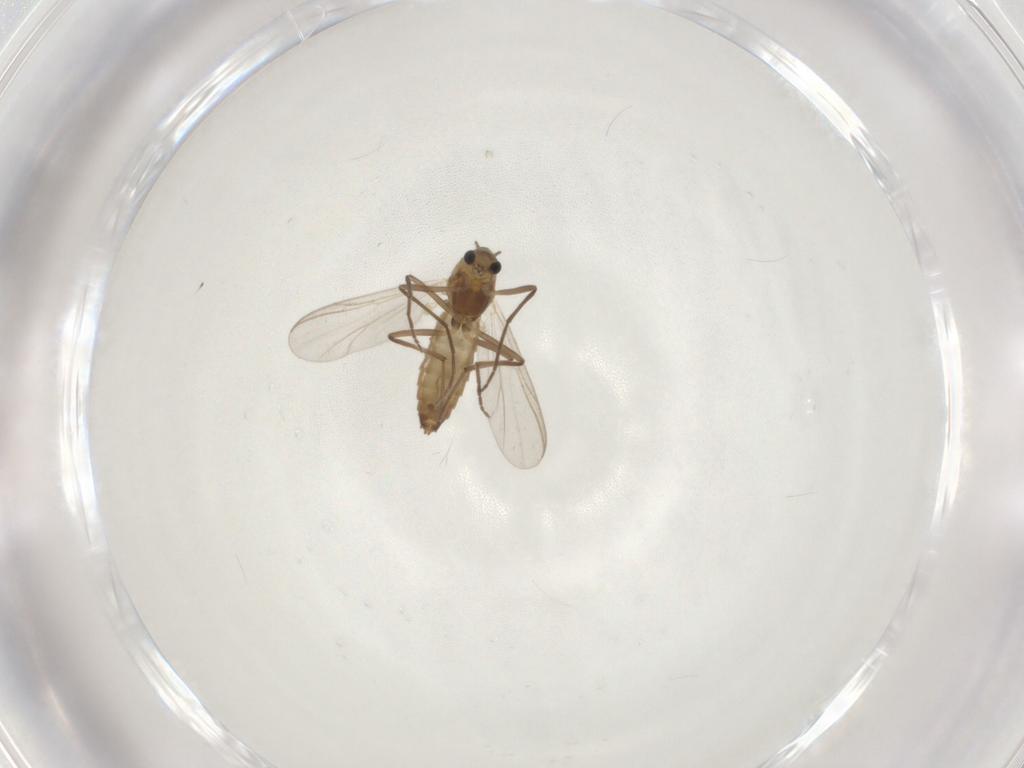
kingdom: Animalia
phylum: Arthropoda
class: Insecta
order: Diptera
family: Chironomidae
